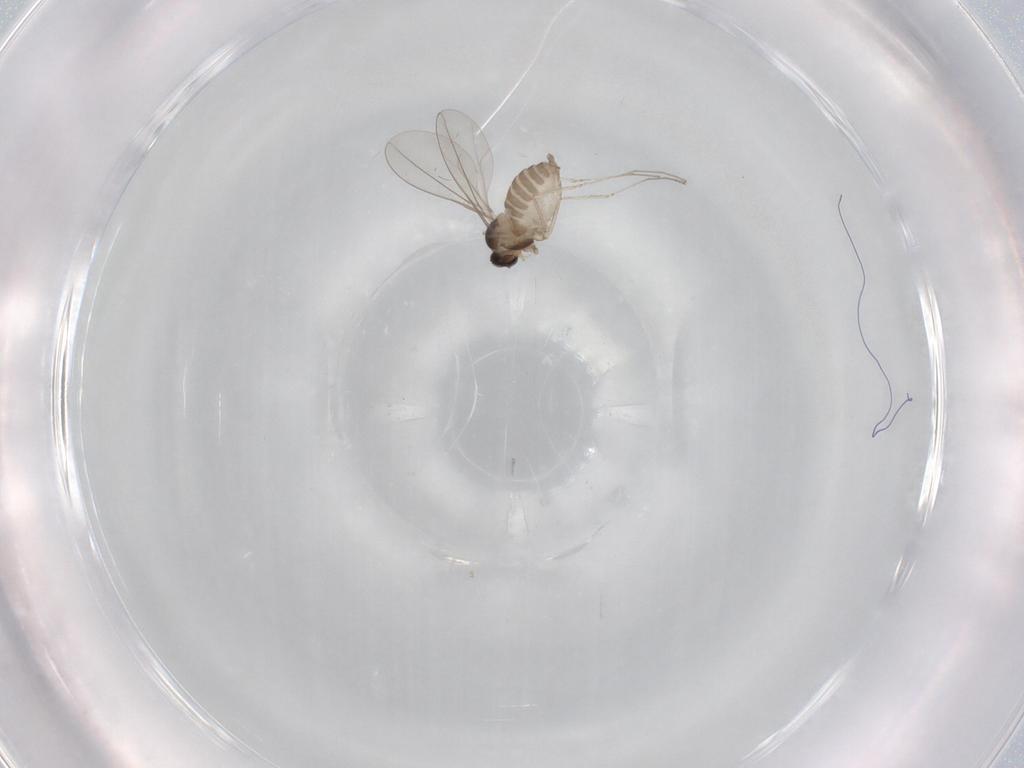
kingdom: Animalia
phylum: Arthropoda
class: Insecta
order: Diptera
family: Cecidomyiidae
